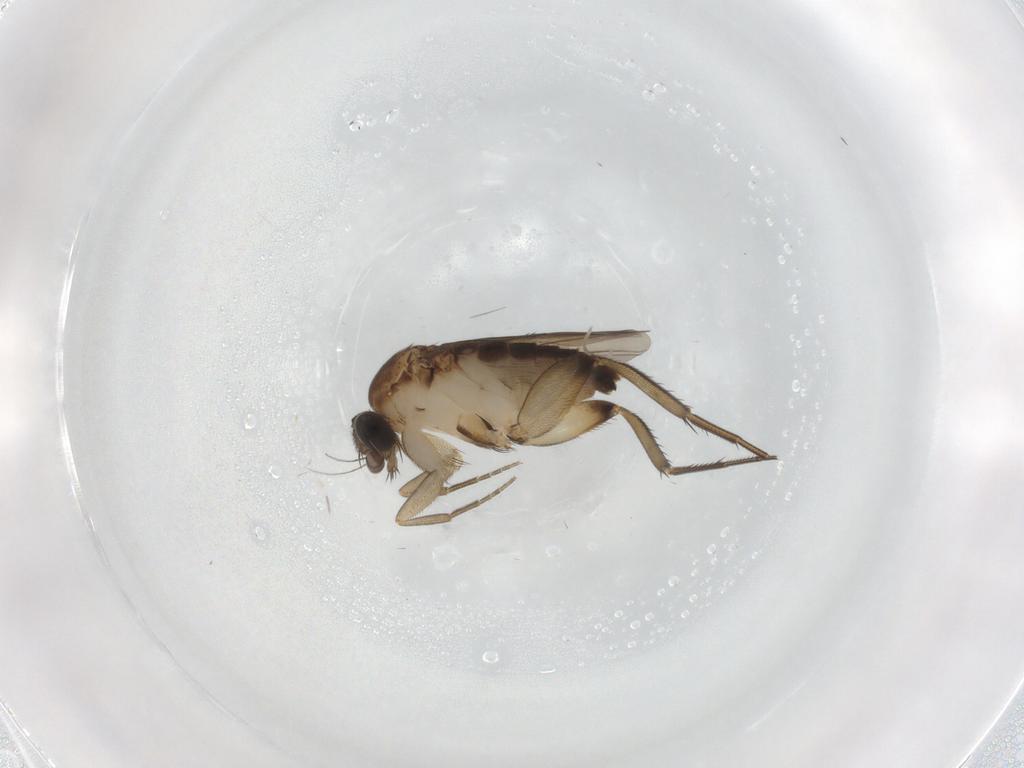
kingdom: Animalia
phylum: Arthropoda
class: Insecta
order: Diptera
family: Phoridae
